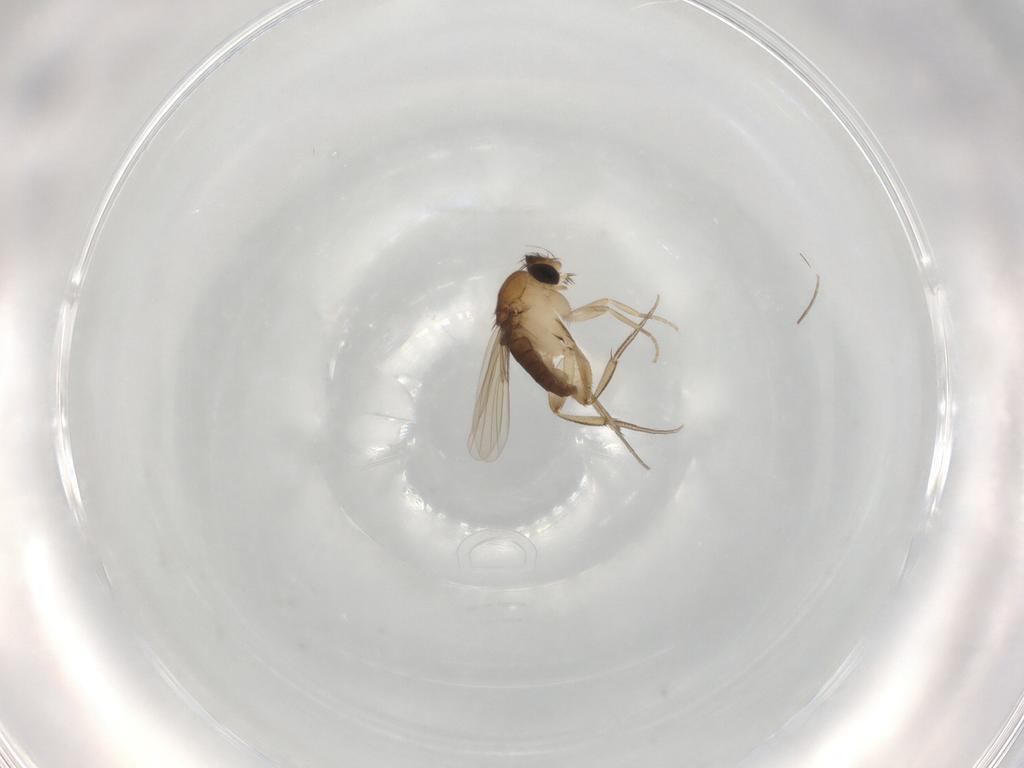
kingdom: Animalia
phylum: Arthropoda
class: Insecta
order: Diptera
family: Phoridae
